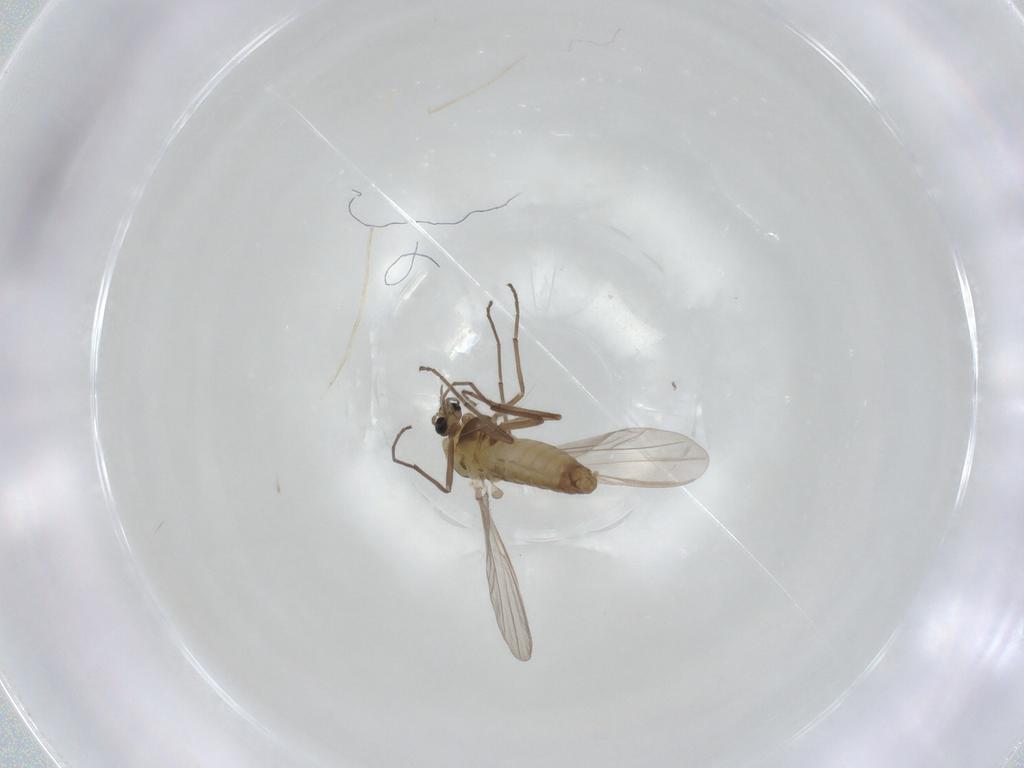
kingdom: Animalia
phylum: Arthropoda
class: Insecta
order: Diptera
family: Chironomidae
